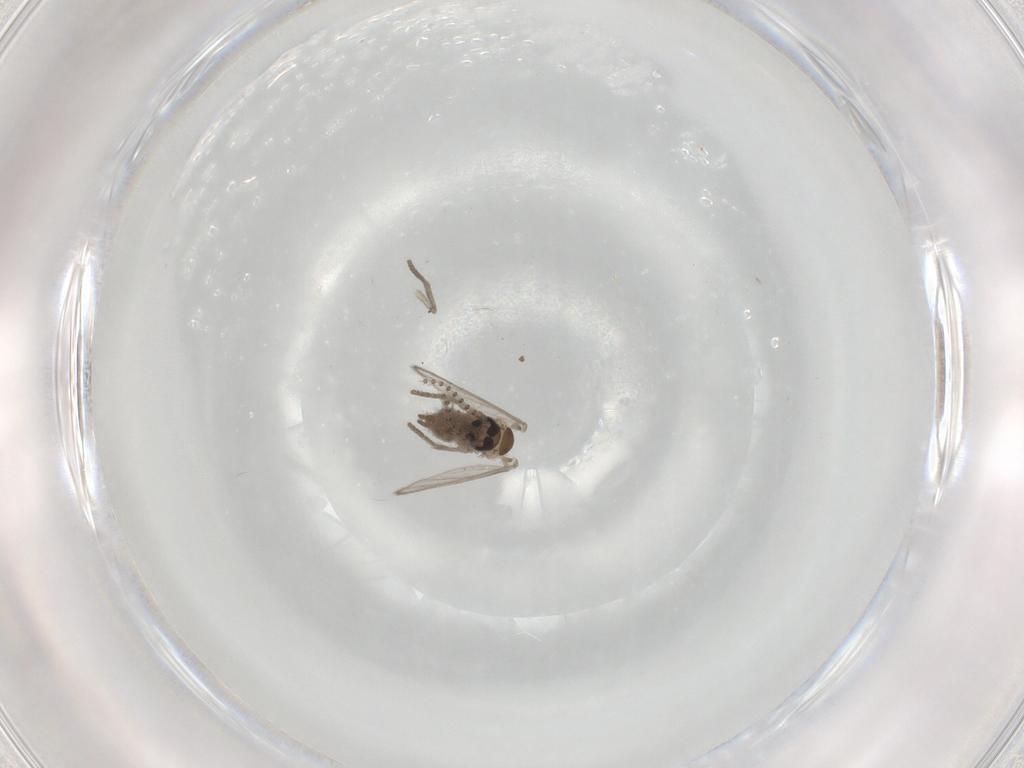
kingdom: Animalia
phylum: Arthropoda
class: Insecta
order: Diptera
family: Psychodidae
